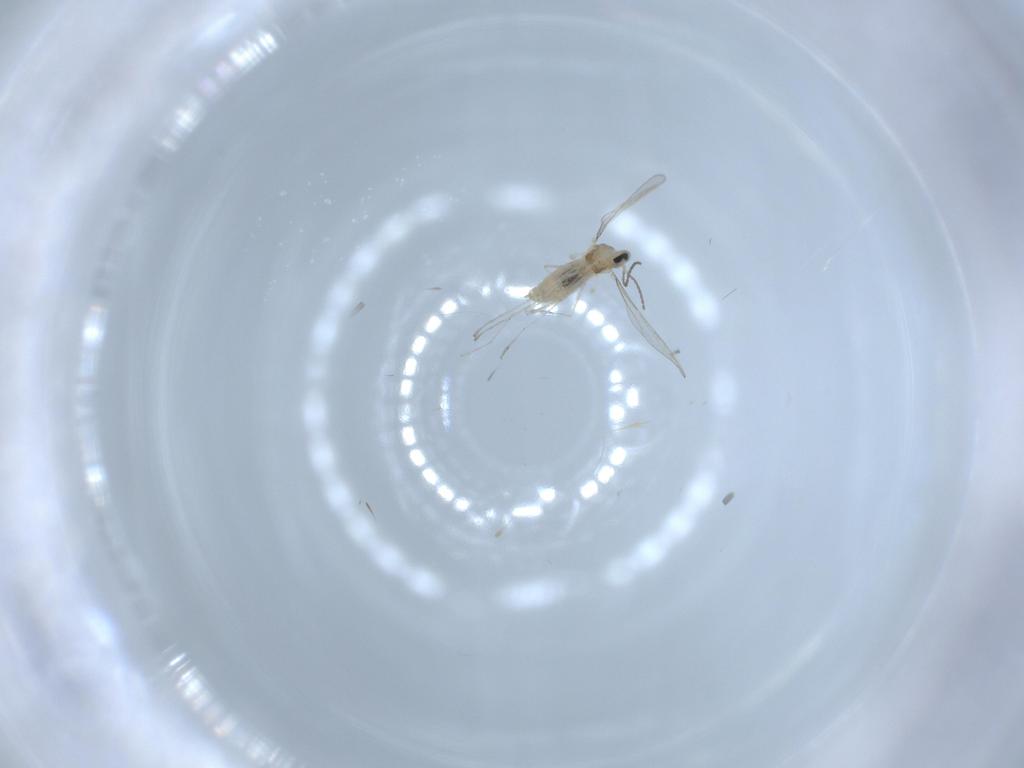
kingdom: Animalia
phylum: Arthropoda
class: Insecta
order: Diptera
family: Cecidomyiidae
